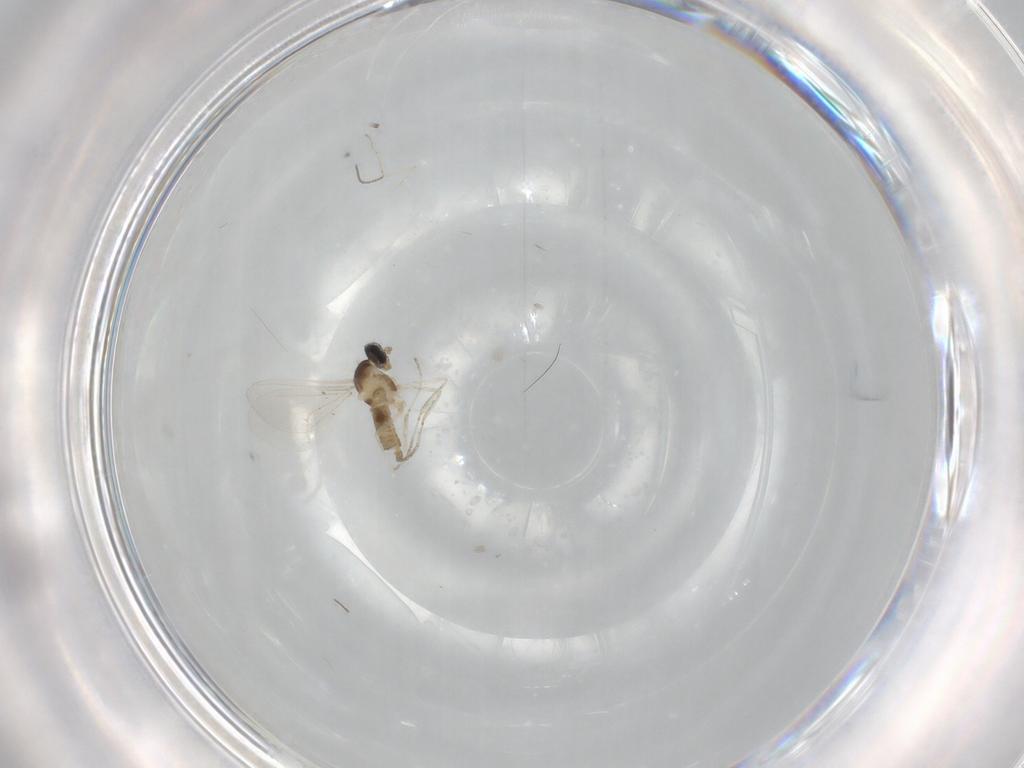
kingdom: Animalia
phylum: Arthropoda
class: Insecta
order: Diptera
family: Cecidomyiidae
